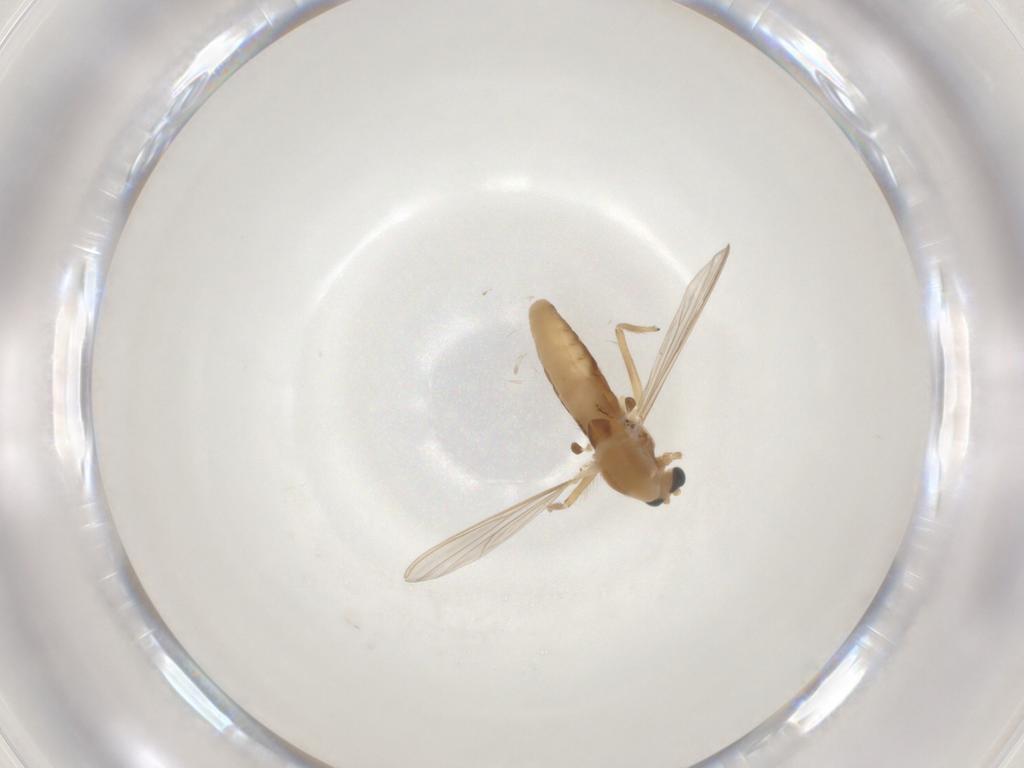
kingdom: Animalia
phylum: Arthropoda
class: Insecta
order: Diptera
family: Chironomidae
